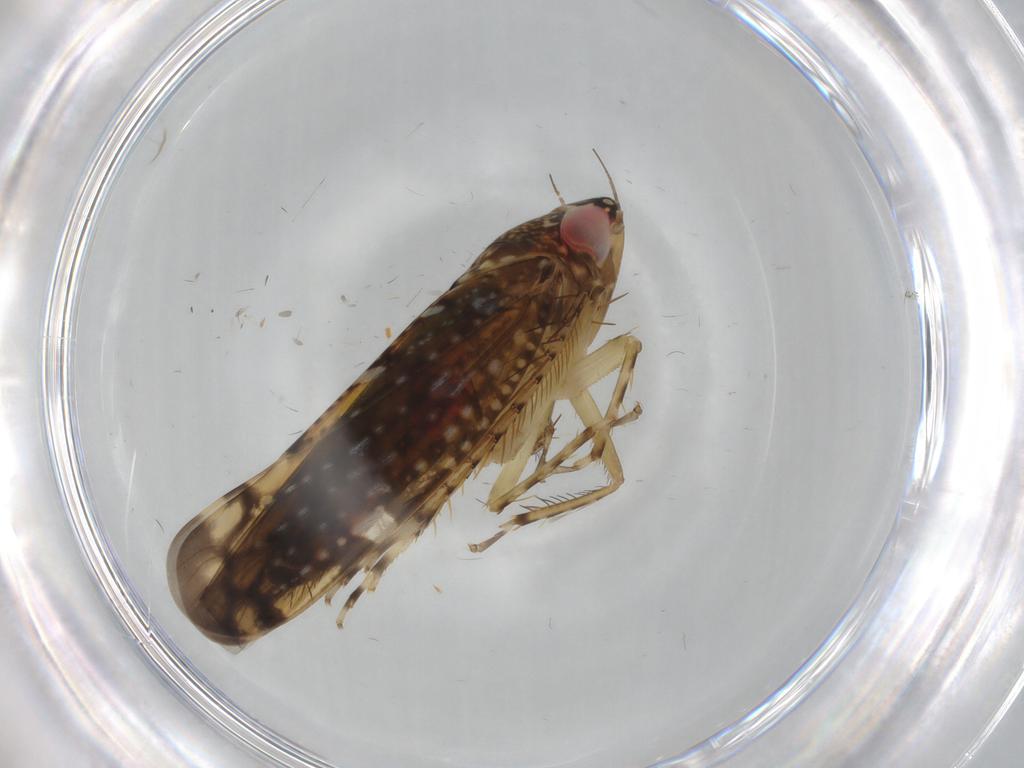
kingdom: Animalia
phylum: Arthropoda
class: Insecta
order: Hemiptera
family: Cicadellidae
